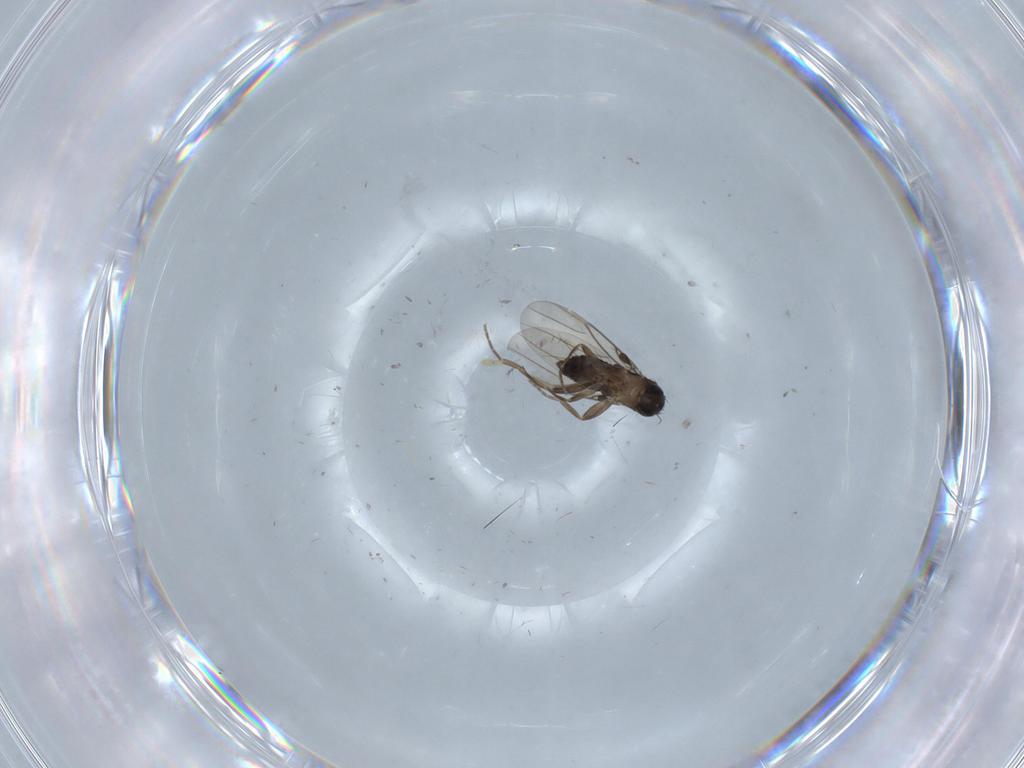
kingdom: Animalia
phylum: Arthropoda
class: Insecta
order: Diptera
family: Phoridae
